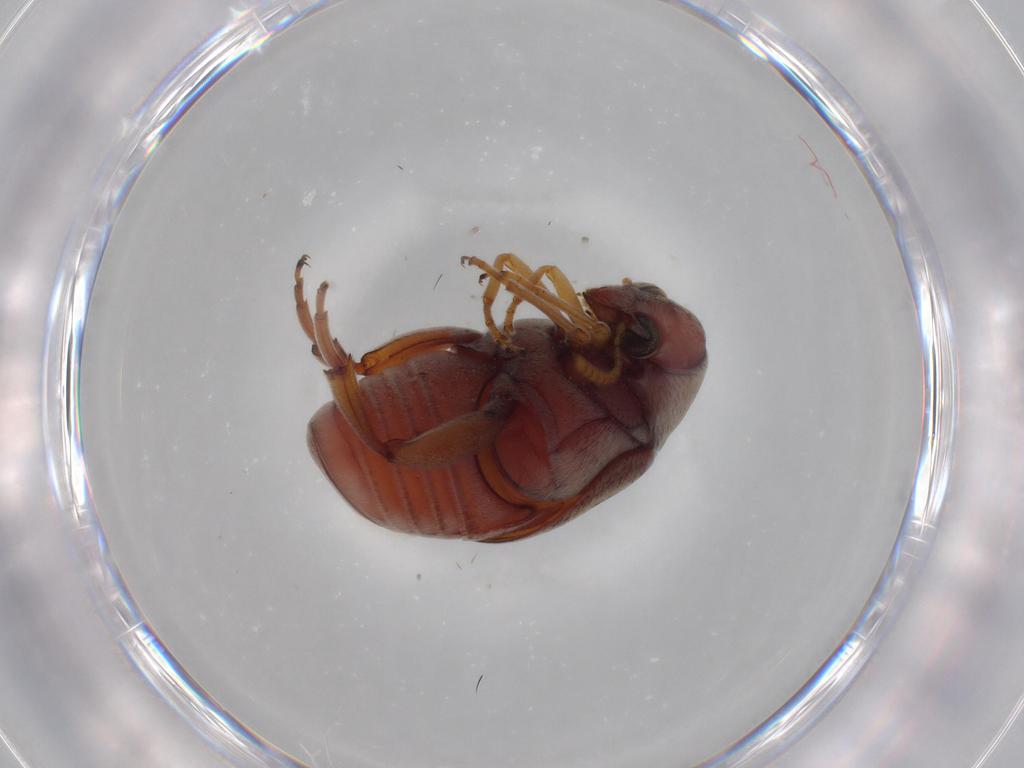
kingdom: Animalia
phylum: Arthropoda
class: Insecta
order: Coleoptera
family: Chrysomelidae
